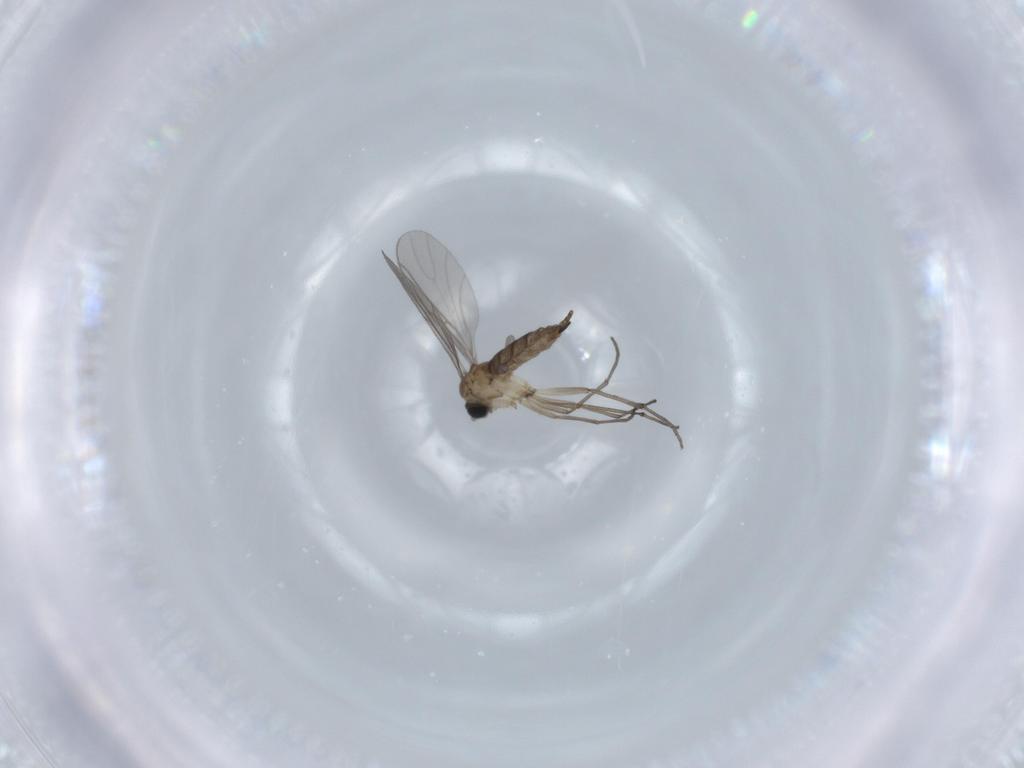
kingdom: Animalia
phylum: Arthropoda
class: Insecta
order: Diptera
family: Sciaridae
